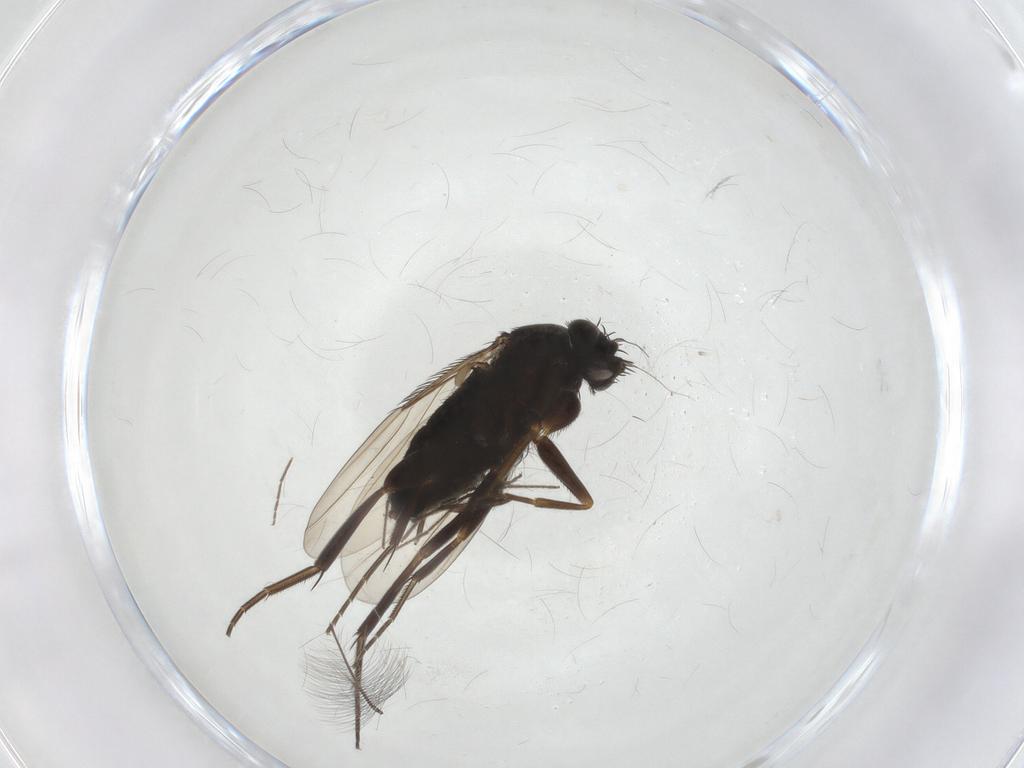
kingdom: Animalia
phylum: Arthropoda
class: Insecta
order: Diptera
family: Phoridae
